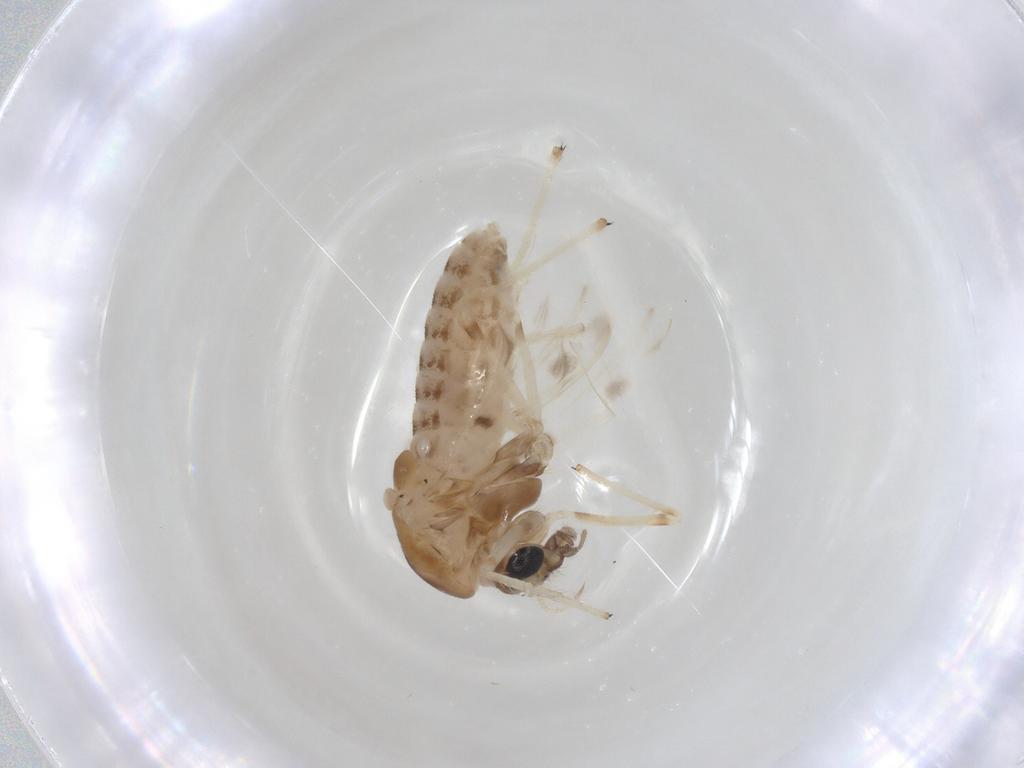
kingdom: Animalia
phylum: Arthropoda
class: Insecta
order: Diptera
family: Chironomidae
